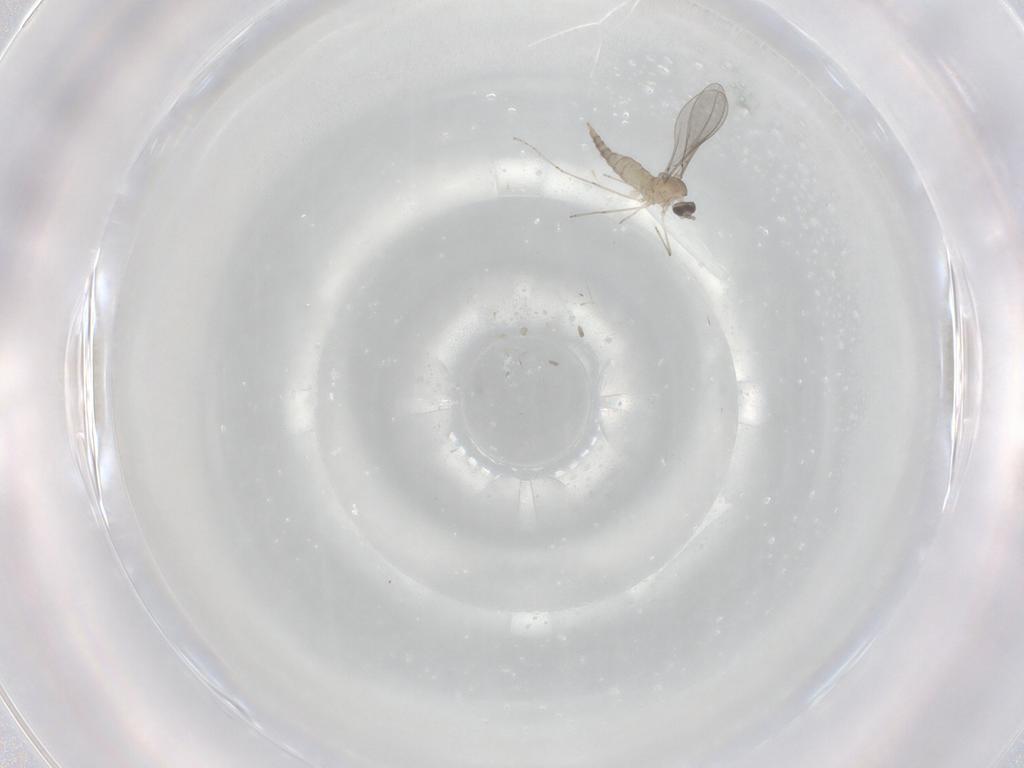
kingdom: Animalia
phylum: Arthropoda
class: Insecta
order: Diptera
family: Cecidomyiidae
